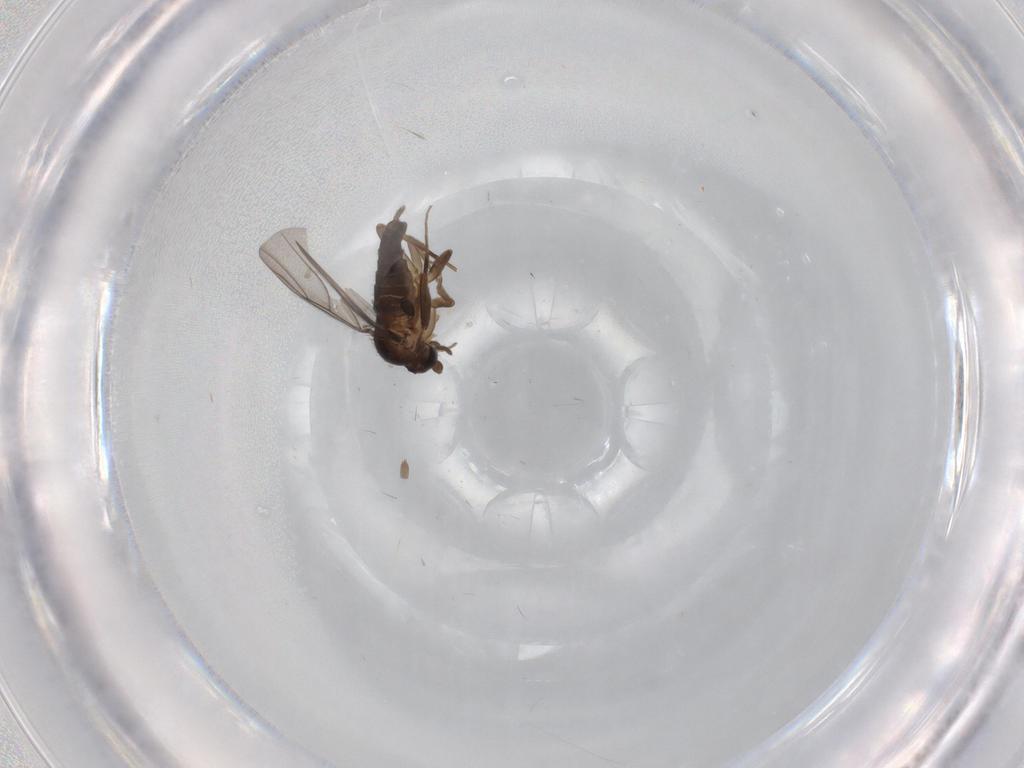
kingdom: Animalia
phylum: Arthropoda
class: Insecta
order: Diptera
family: Phoridae
